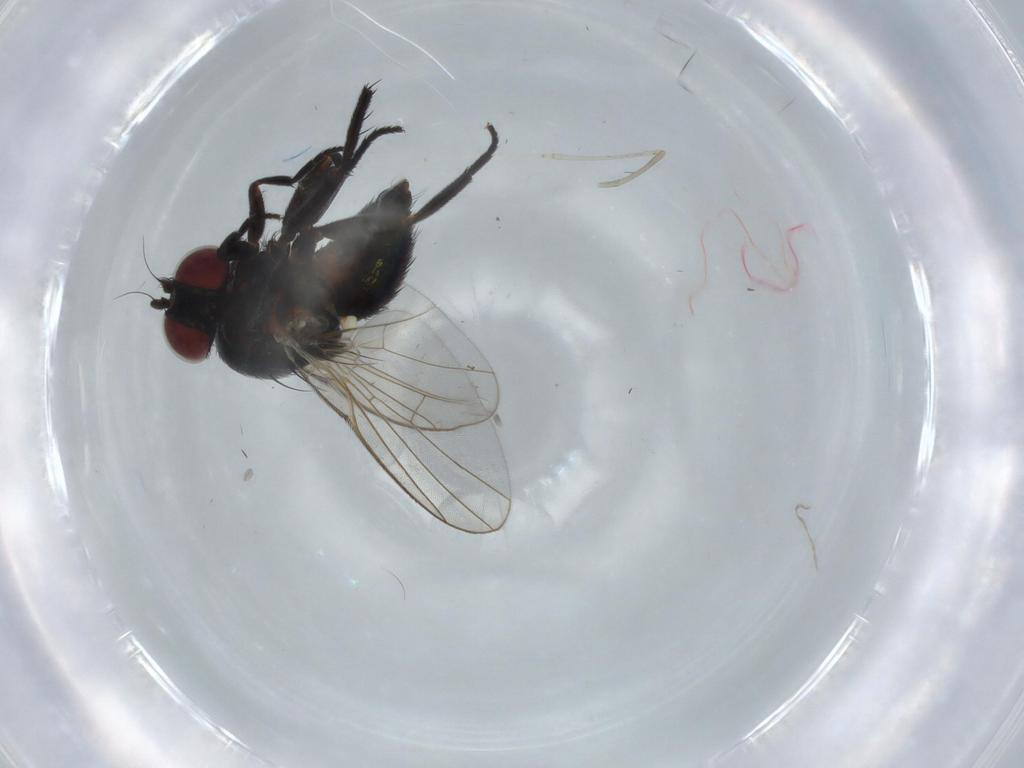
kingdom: Animalia
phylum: Arthropoda
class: Insecta
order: Diptera
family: Agromyzidae
